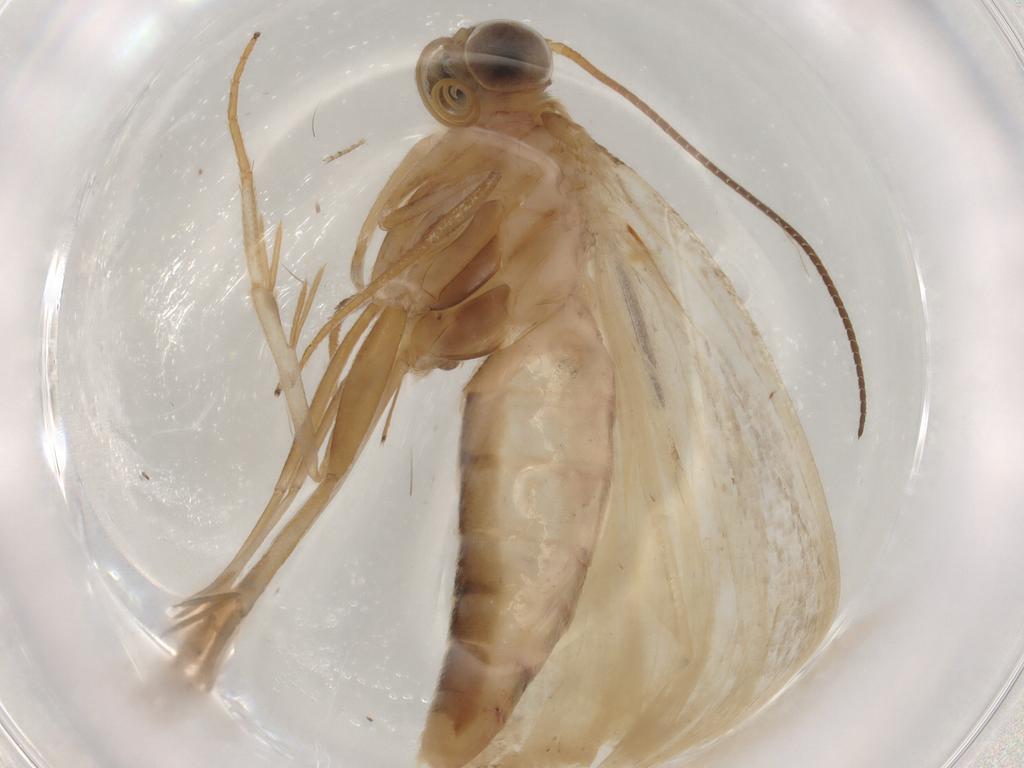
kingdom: Animalia
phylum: Arthropoda
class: Insecta
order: Lepidoptera
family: Crambidae
